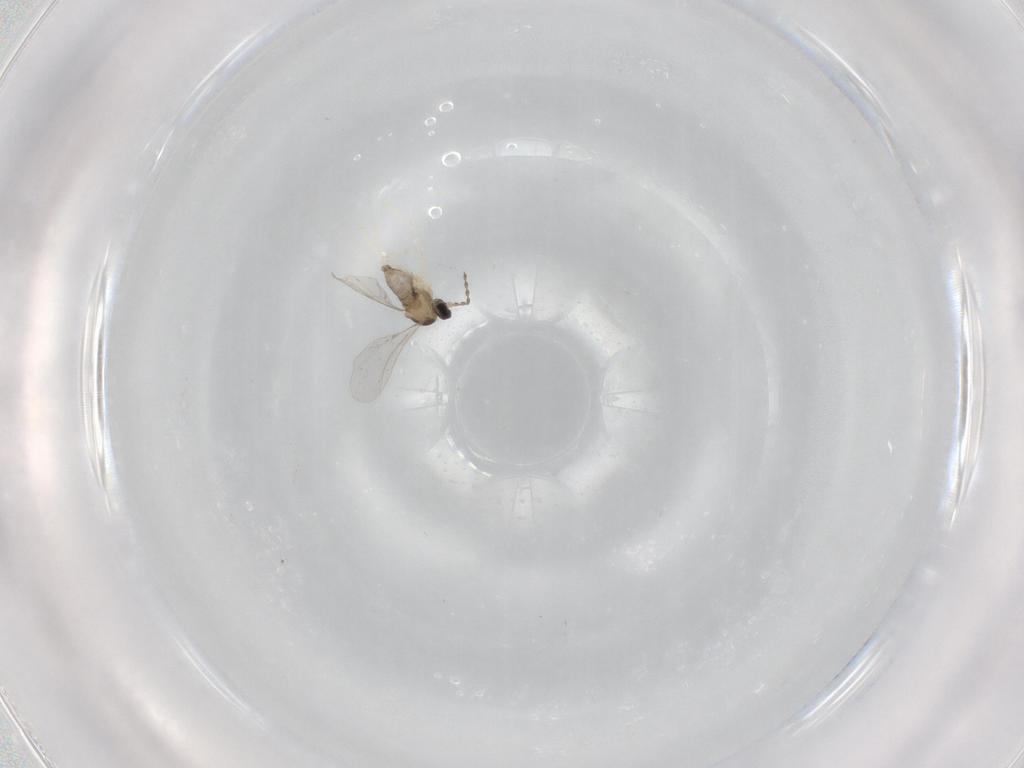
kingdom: Animalia
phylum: Arthropoda
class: Insecta
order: Diptera
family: Cecidomyiidae
